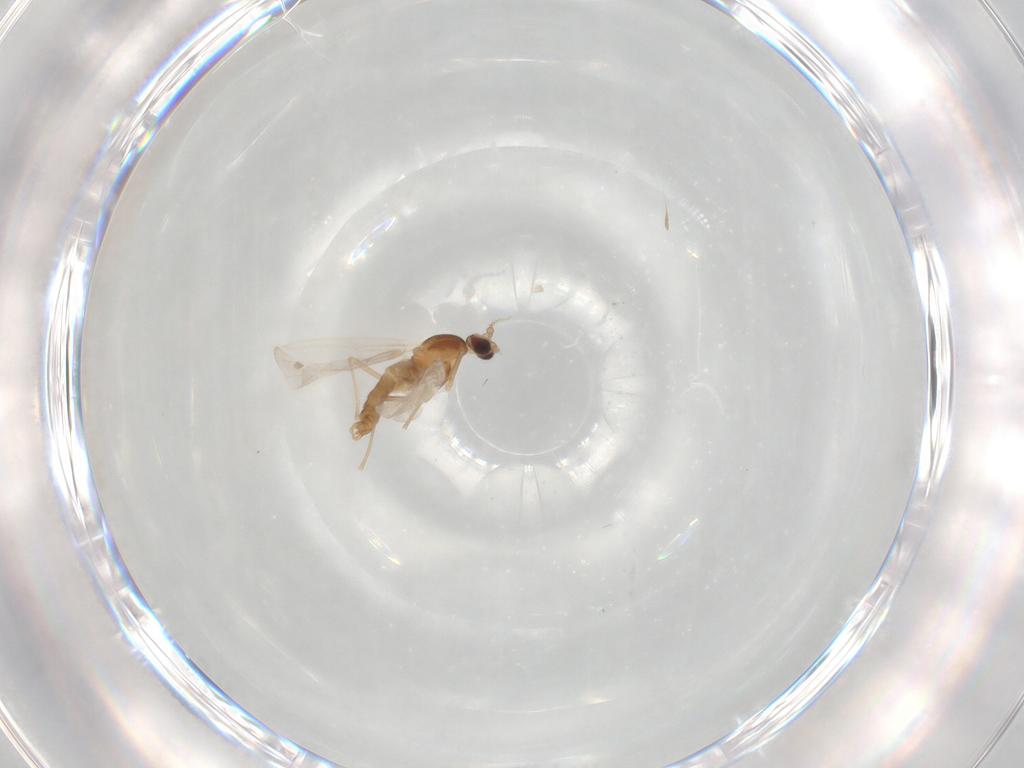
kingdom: Animalia
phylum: Arthropoda
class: Insecta
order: Diptera
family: Cecidomyiidae
